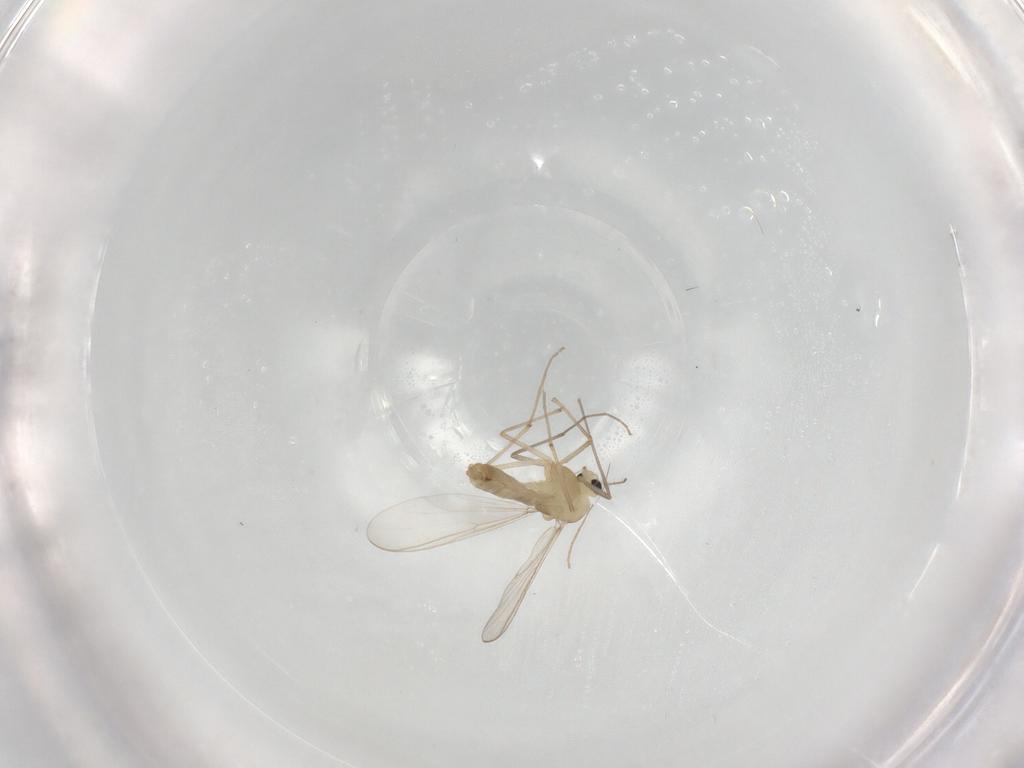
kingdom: Animalia
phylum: Arthropoda
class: Insecta
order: Diptera
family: Chironomidae
